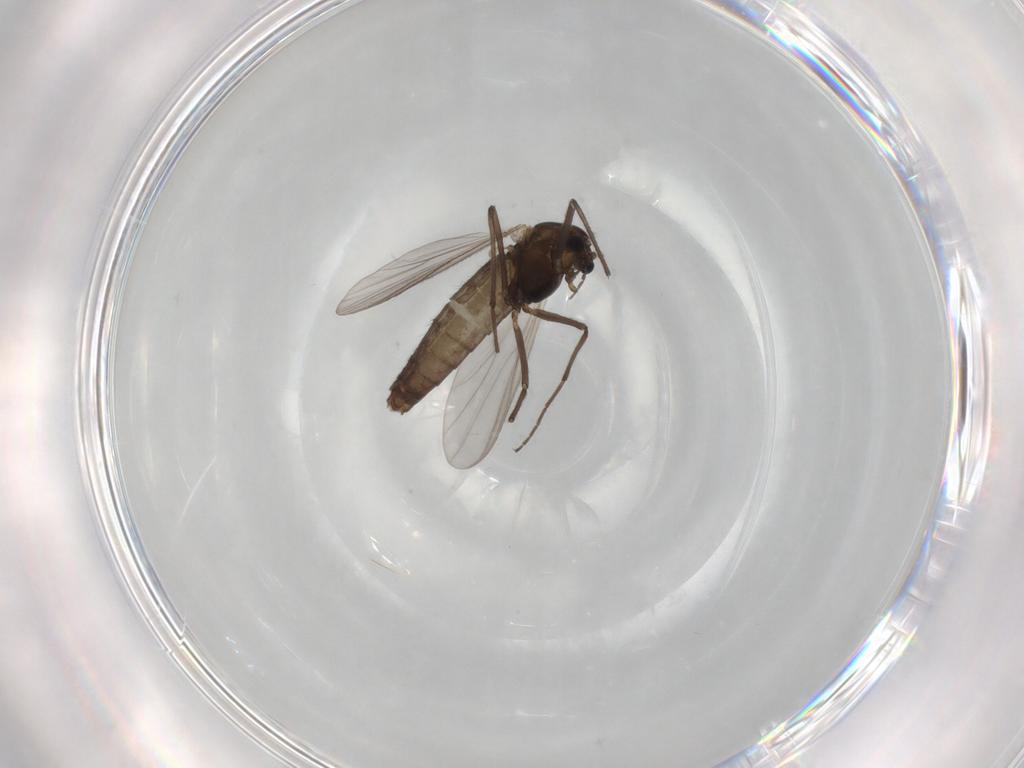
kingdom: Animalia
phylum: Arthropoda
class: Insecta
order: Diptera
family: Chironomidae
